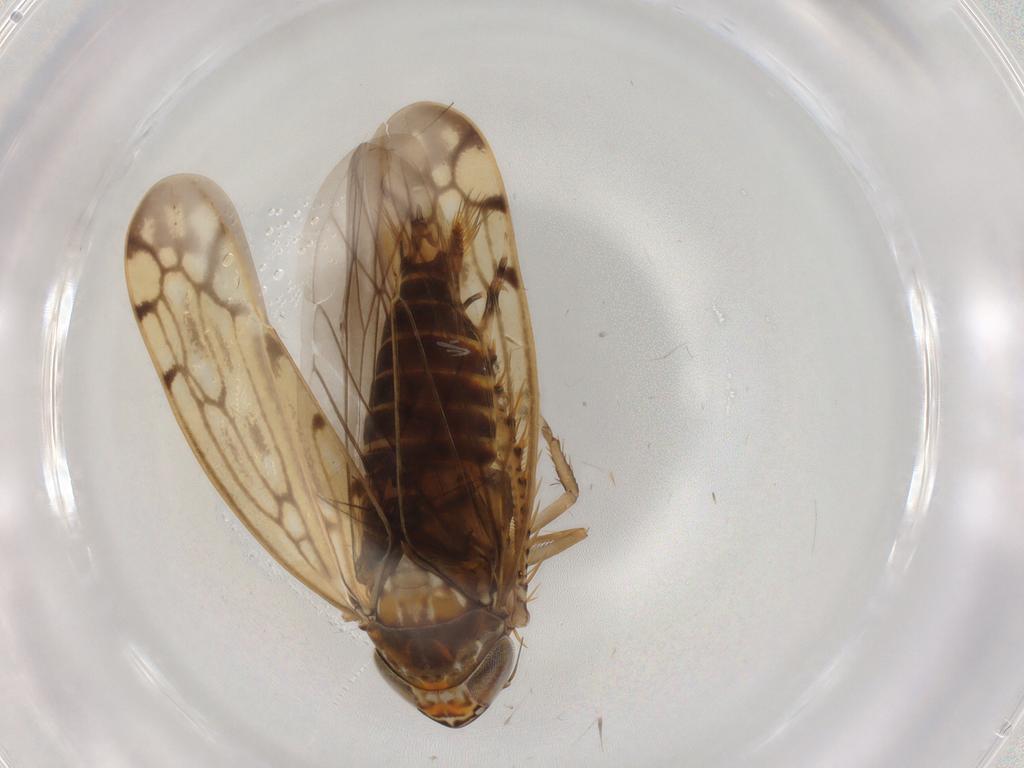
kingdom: Animalia
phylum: Arthropoda
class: Insecta
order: Hemiptera
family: Cicadellidae
